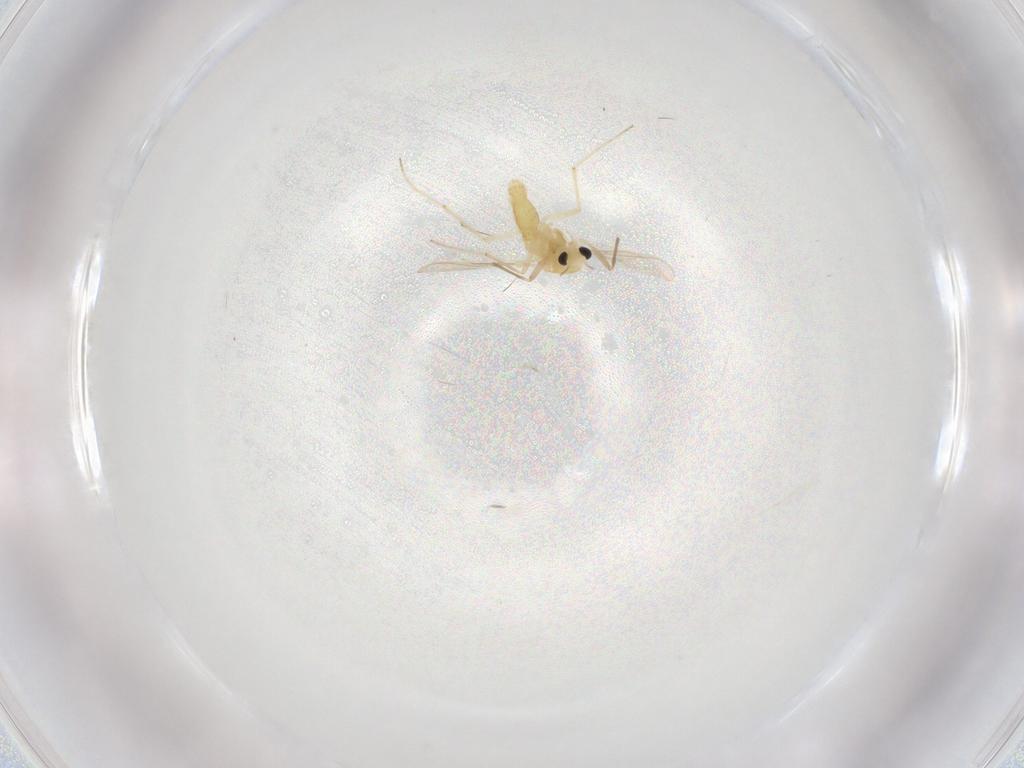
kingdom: Animalia
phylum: Arthropoda
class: Insecta
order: Diptera
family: Chironomidae
